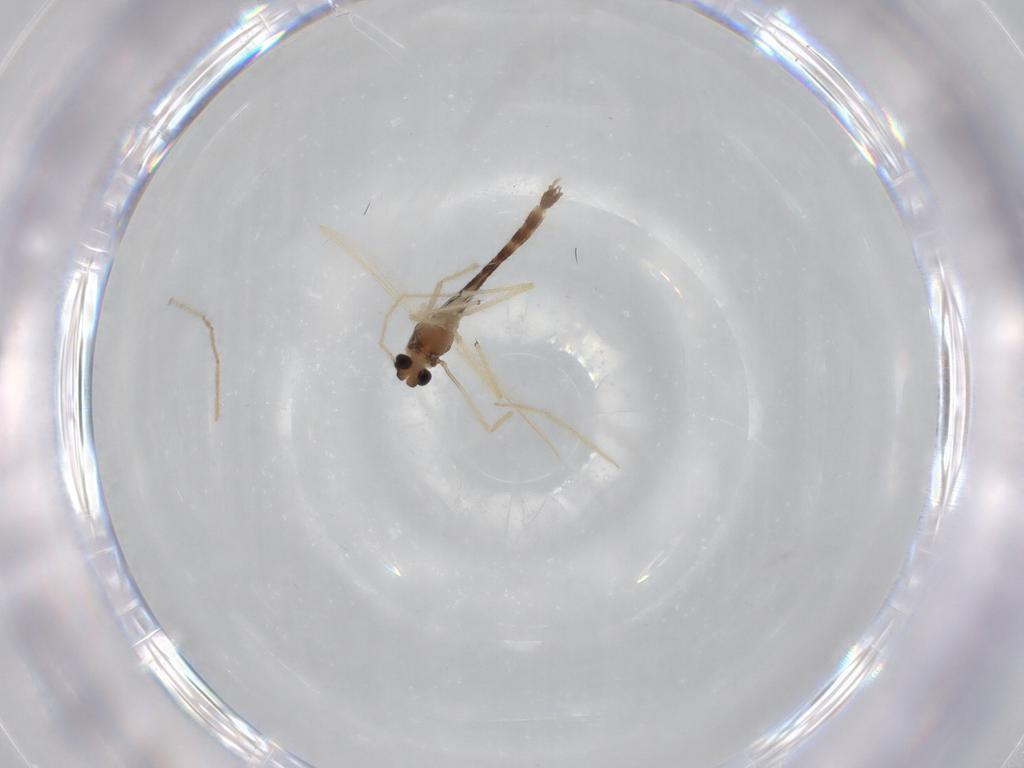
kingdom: Animalia
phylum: Arthropoda
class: Insecta
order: Diptera
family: Chironomidae
